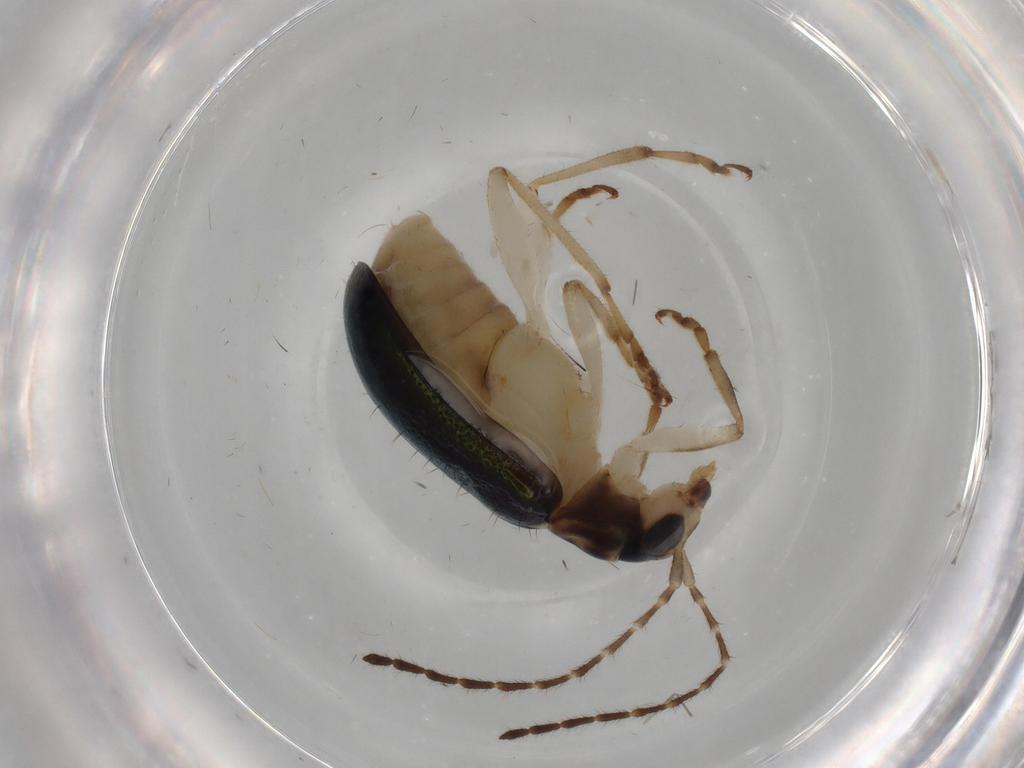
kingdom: Animalia
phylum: Arthropoda
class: Insecta
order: Coleoptera
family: Chrysomelidae
